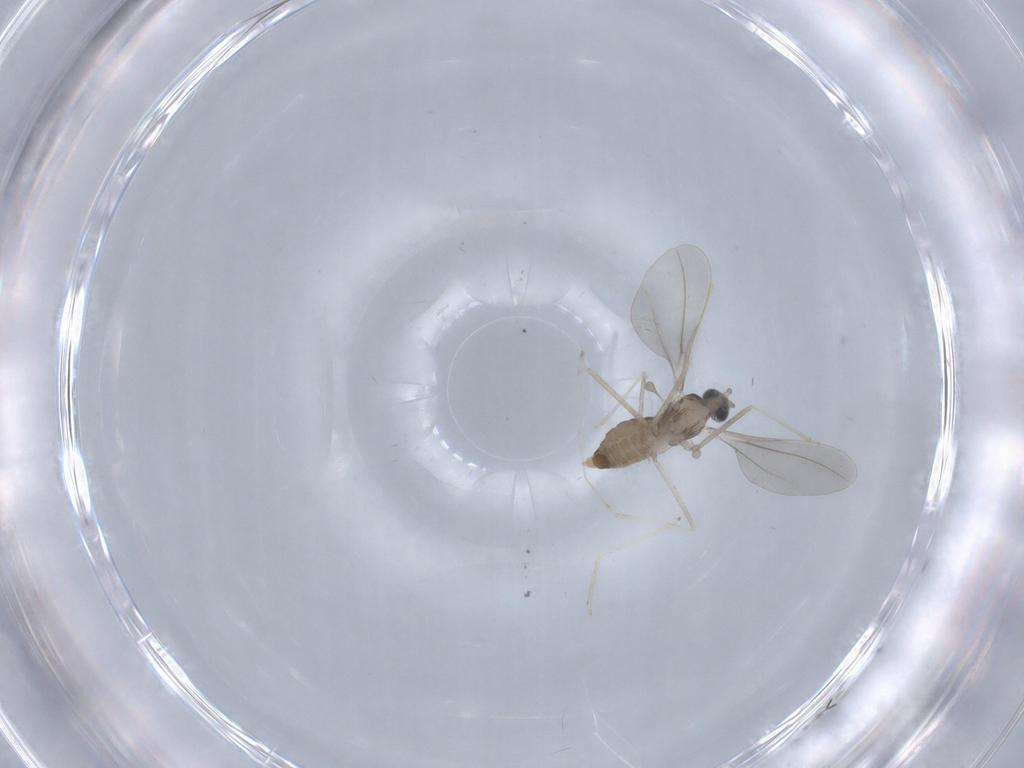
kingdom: Animalia
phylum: Arthropoda
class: Insecta
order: Diptera
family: Cecidomyiidae
